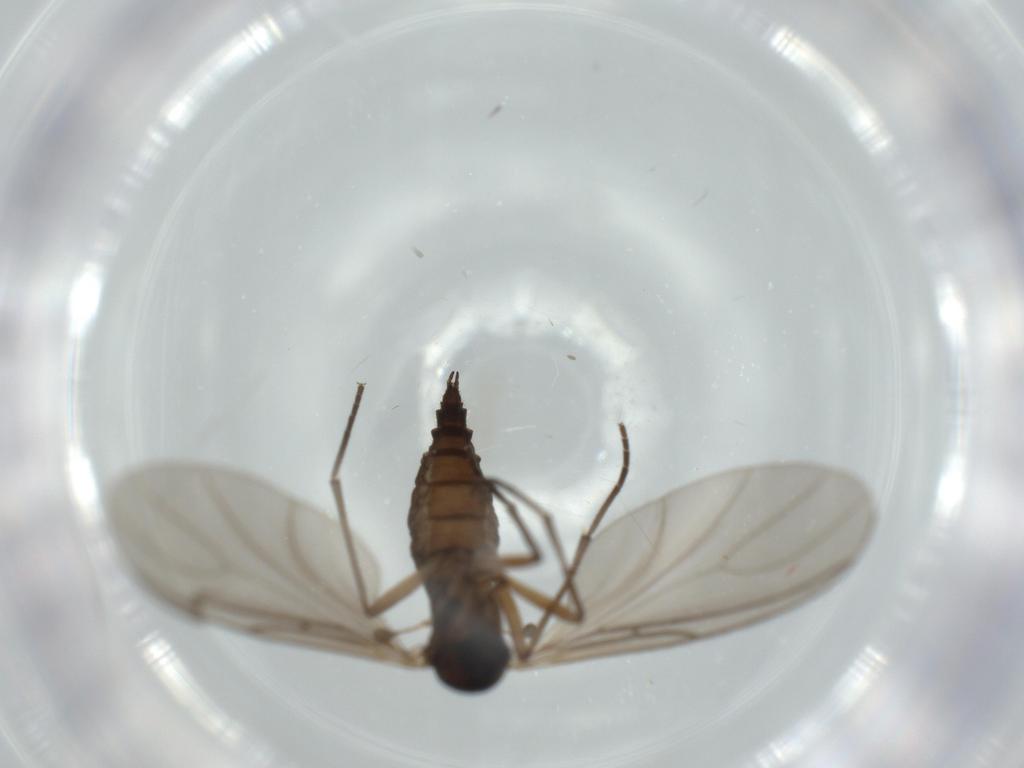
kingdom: Animalia
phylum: Arthropoda
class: Insecta
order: Diptera
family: Sciaridae
